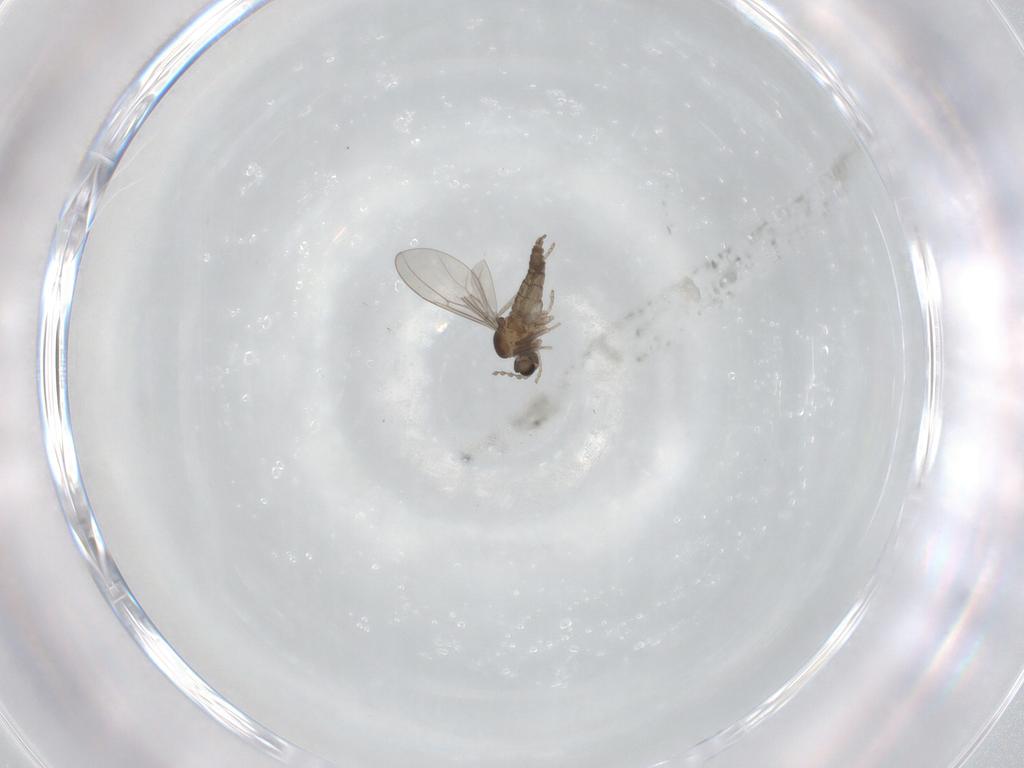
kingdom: Animalia
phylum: Arthropoda
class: Insecta
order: Diptera
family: Cecidomyiidae
